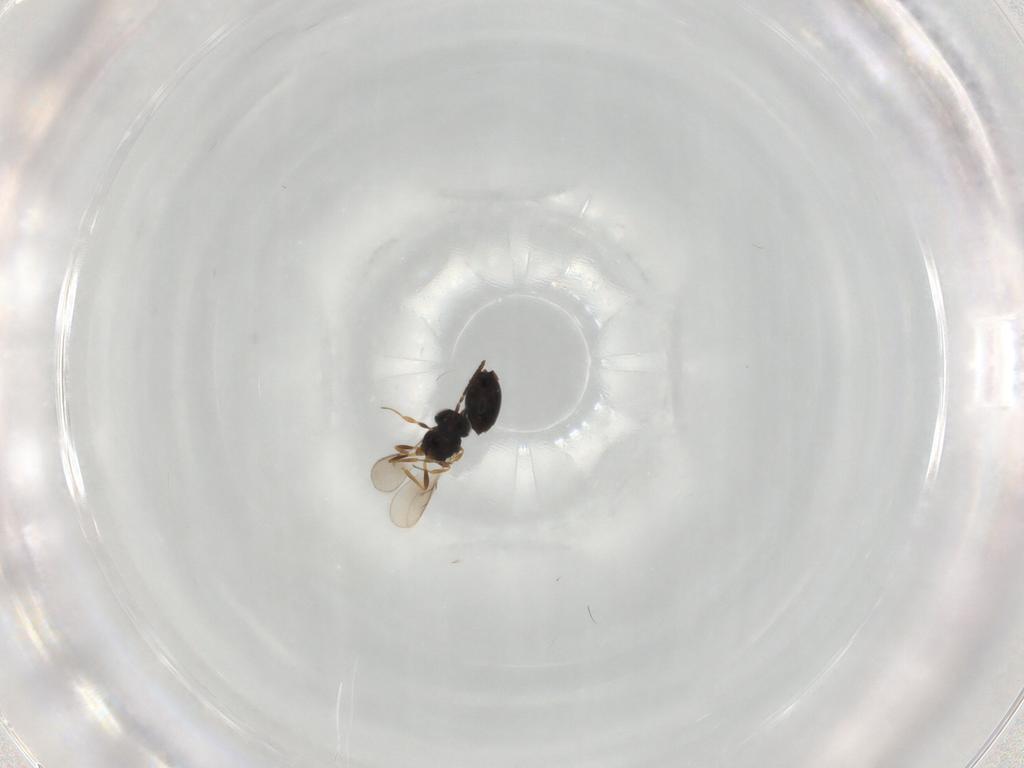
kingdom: Animalia
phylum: Arthropoda
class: Insecta
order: Hymenoptera
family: Scelionidae
